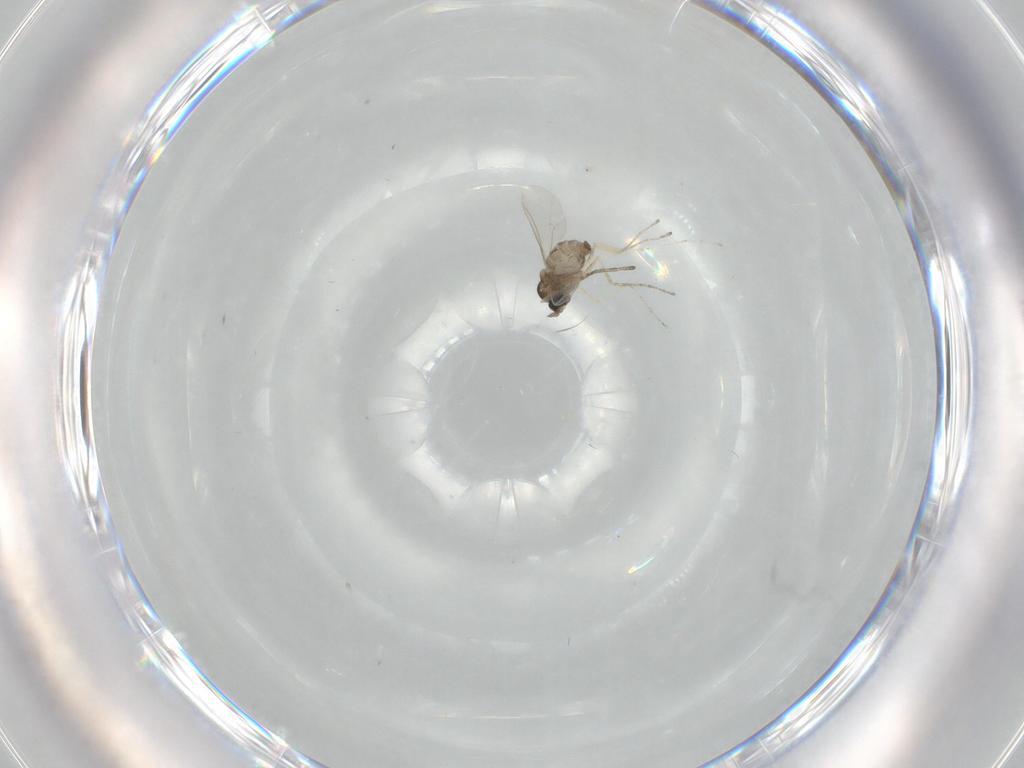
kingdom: Animalia
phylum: Arthropoda
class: Insecta
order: Diptera
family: Cecidomyiidae
